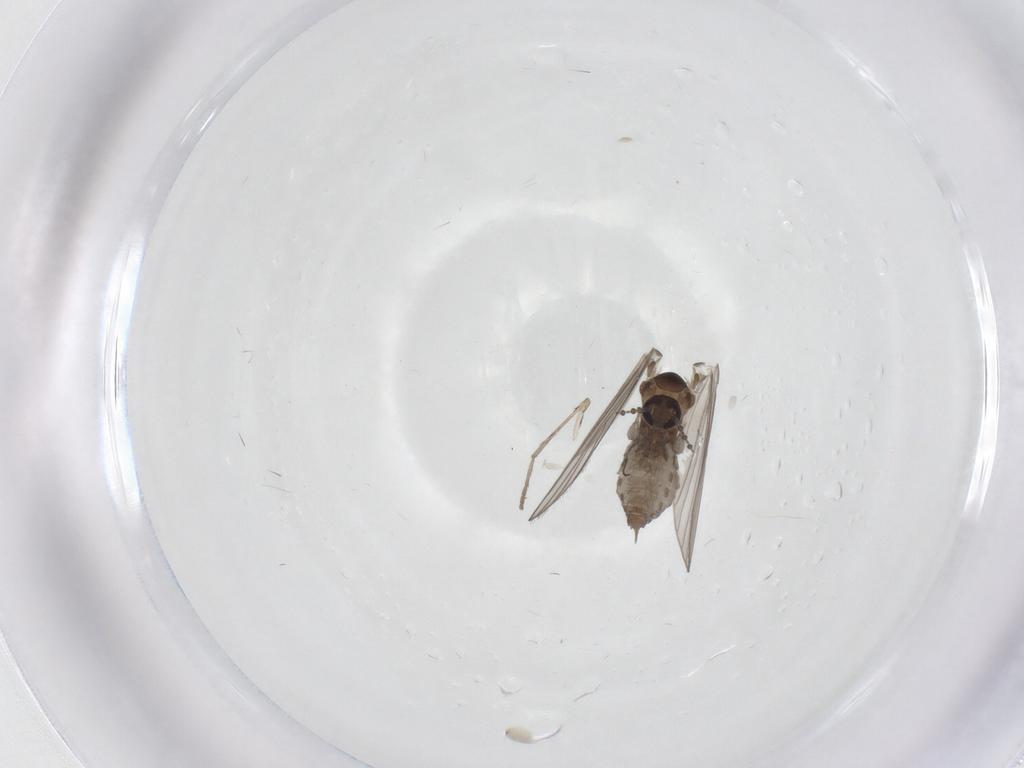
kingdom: Animalia
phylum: Arthropoda
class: Insecta
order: Diptera
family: Psychodidae
